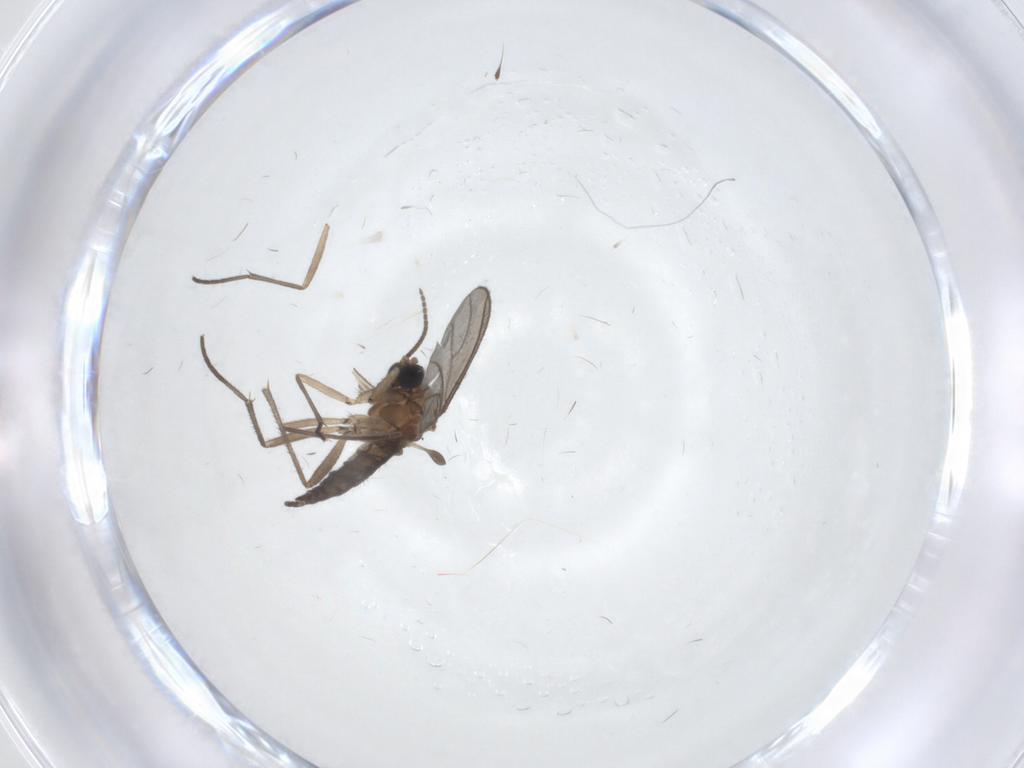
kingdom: Animalia
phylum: Arthropoda
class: Insecta
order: Diptera
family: Sciaridae
